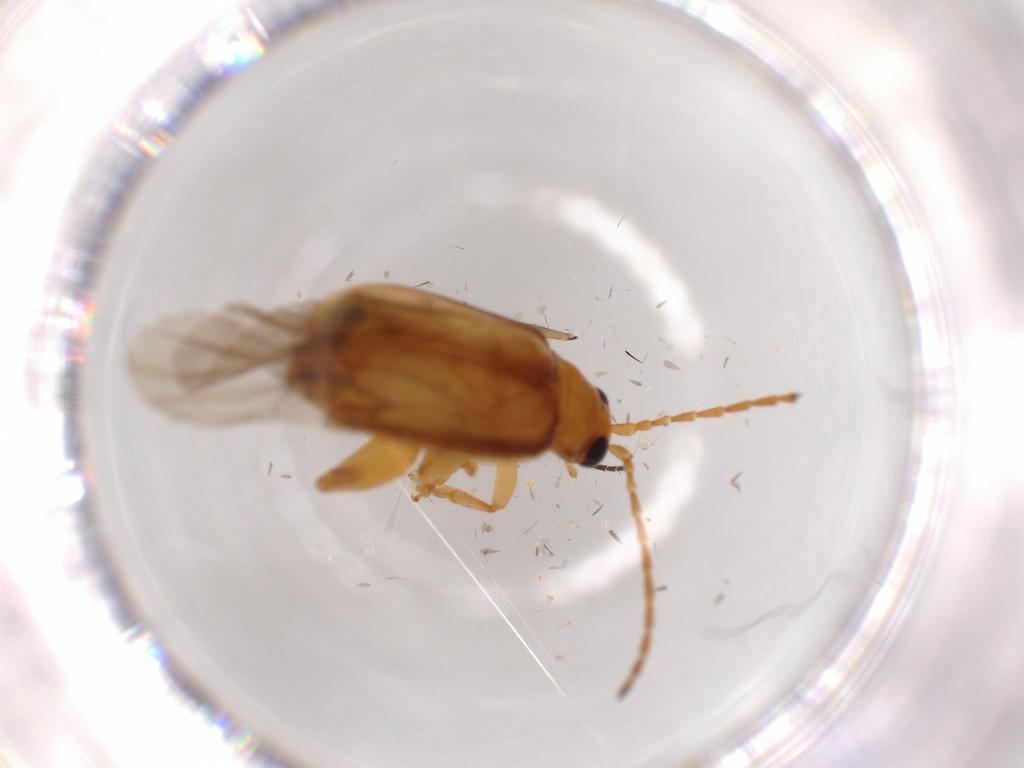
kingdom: Animalia
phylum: Arthropoda
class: Insecta
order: Coleoptera
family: Chrysomelidae
